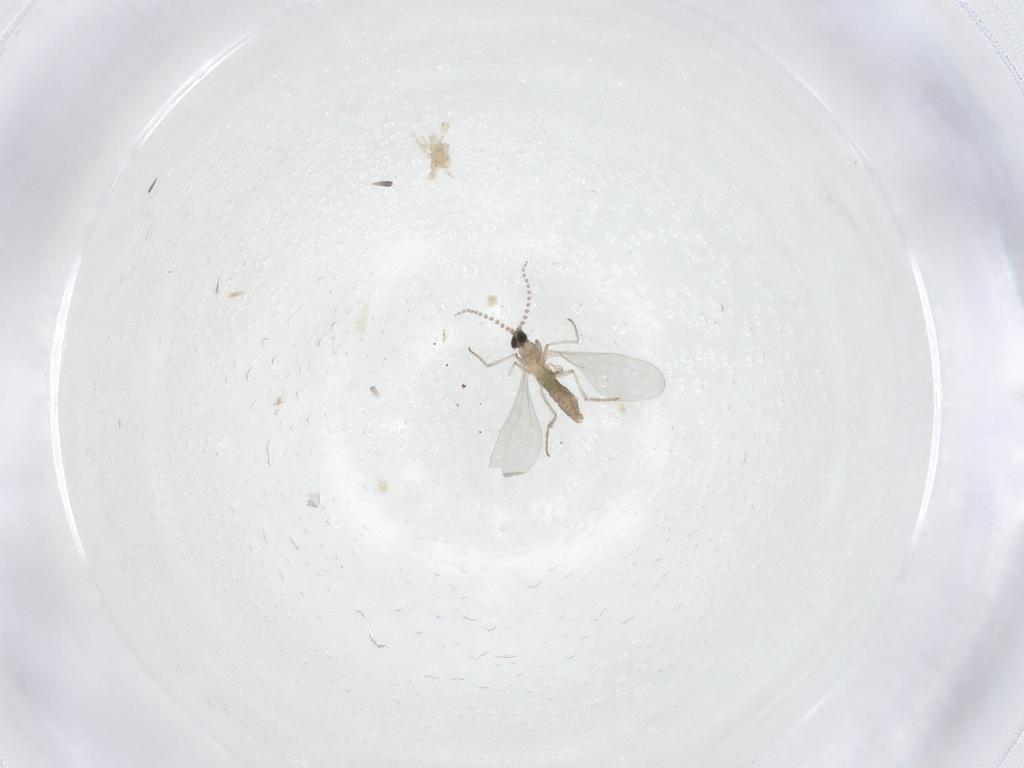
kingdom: Animalia
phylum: Arthropoda
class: Insecta
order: Diptera
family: Cecidomyiidae
